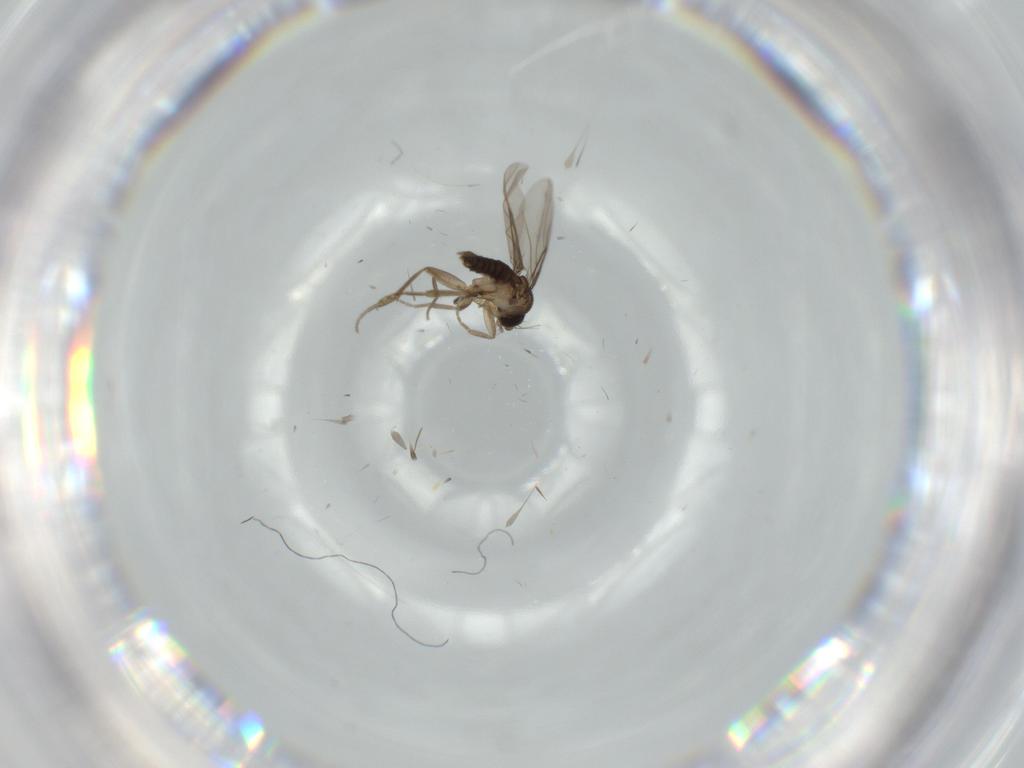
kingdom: Animalia
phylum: Arthropoda
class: Insecta
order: Diptera
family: Phoridae
